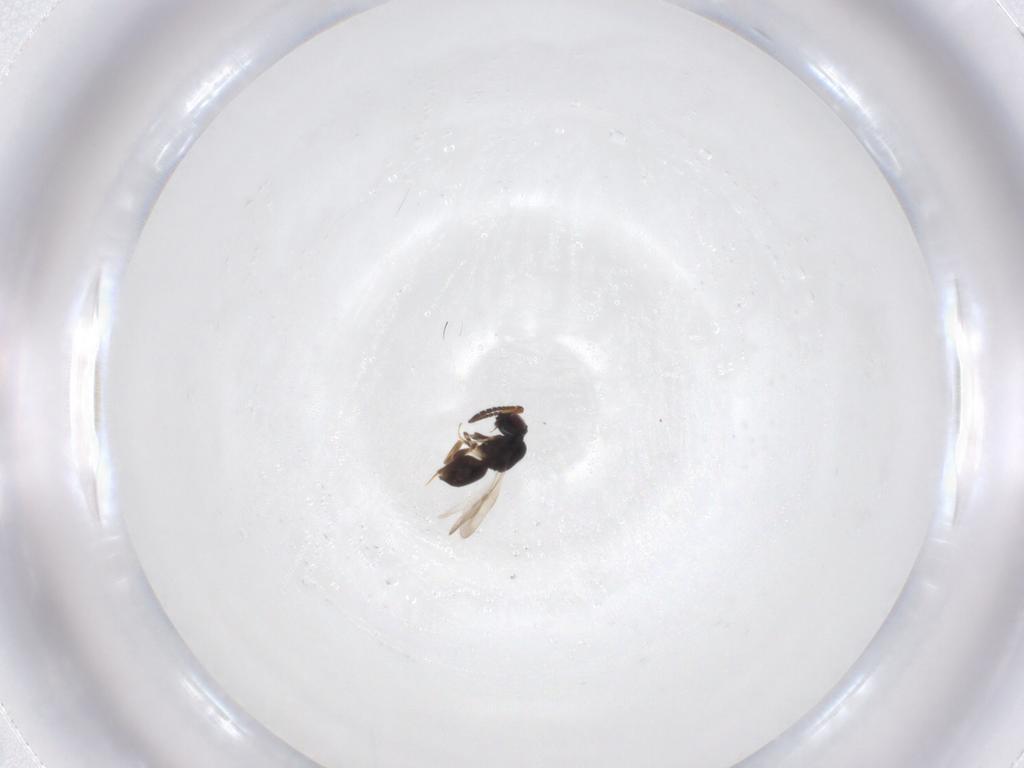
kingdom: Animalia
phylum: Arthropoda
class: Insecta
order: Hymenoptera
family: Ceraphronidae
